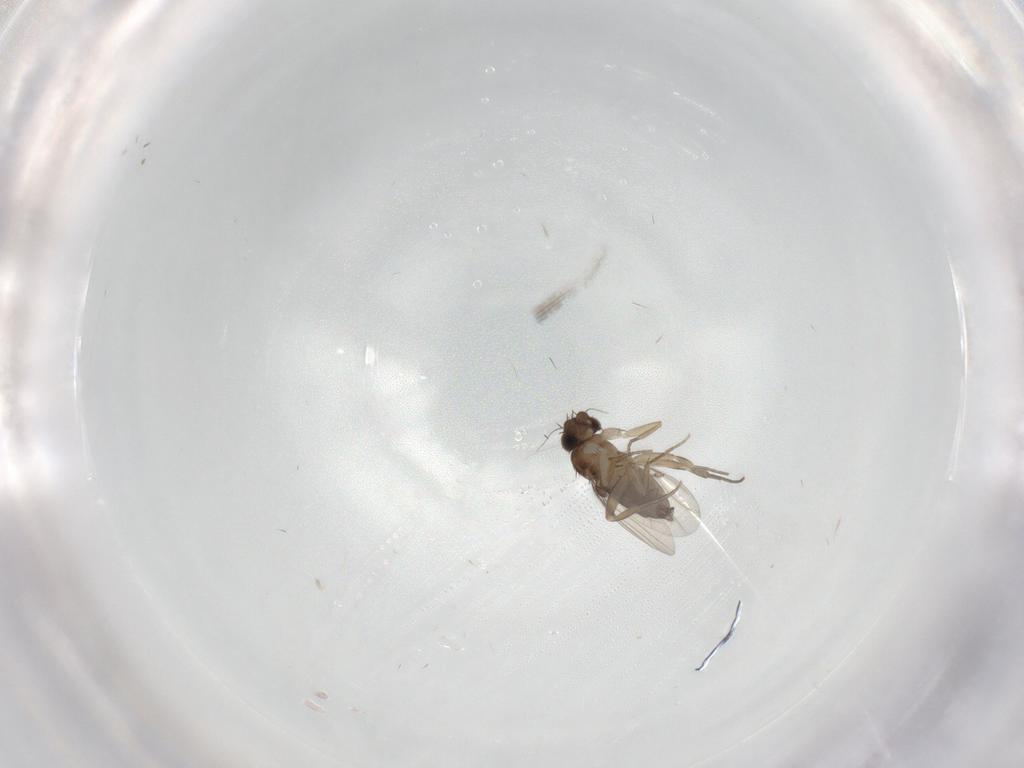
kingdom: Animalia
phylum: Arthropoda
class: Insecta
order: Diptera
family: Phoridae
